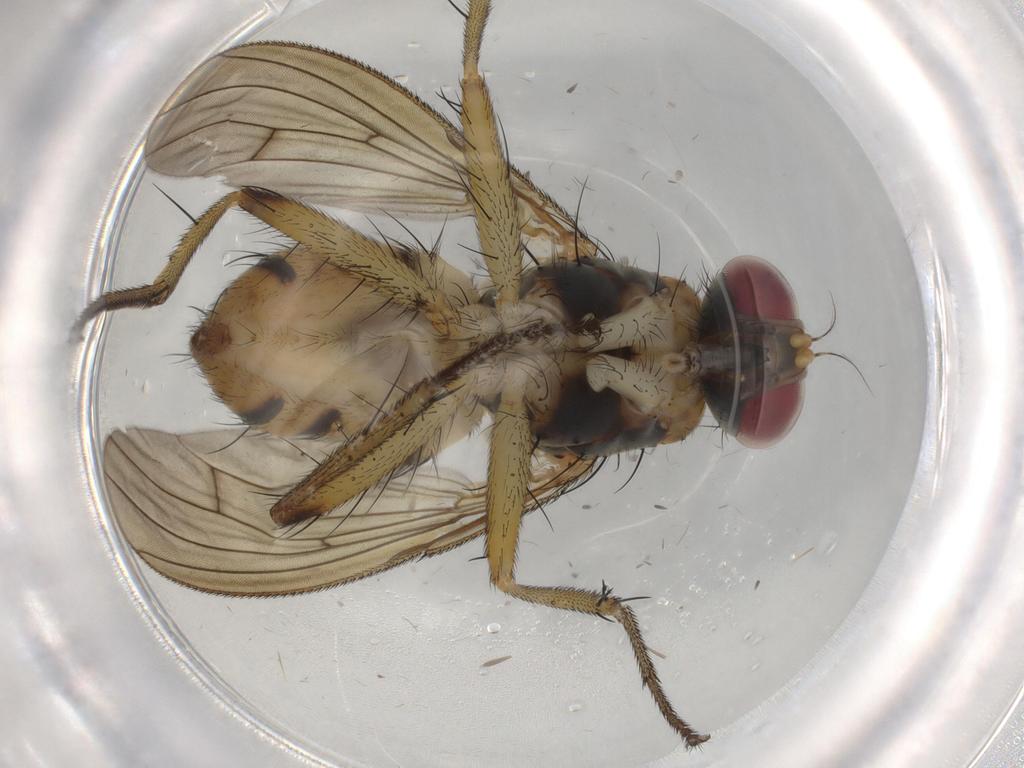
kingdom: Animalia
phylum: Arthropoda
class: Insecta
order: Diptera
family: Muscidae
